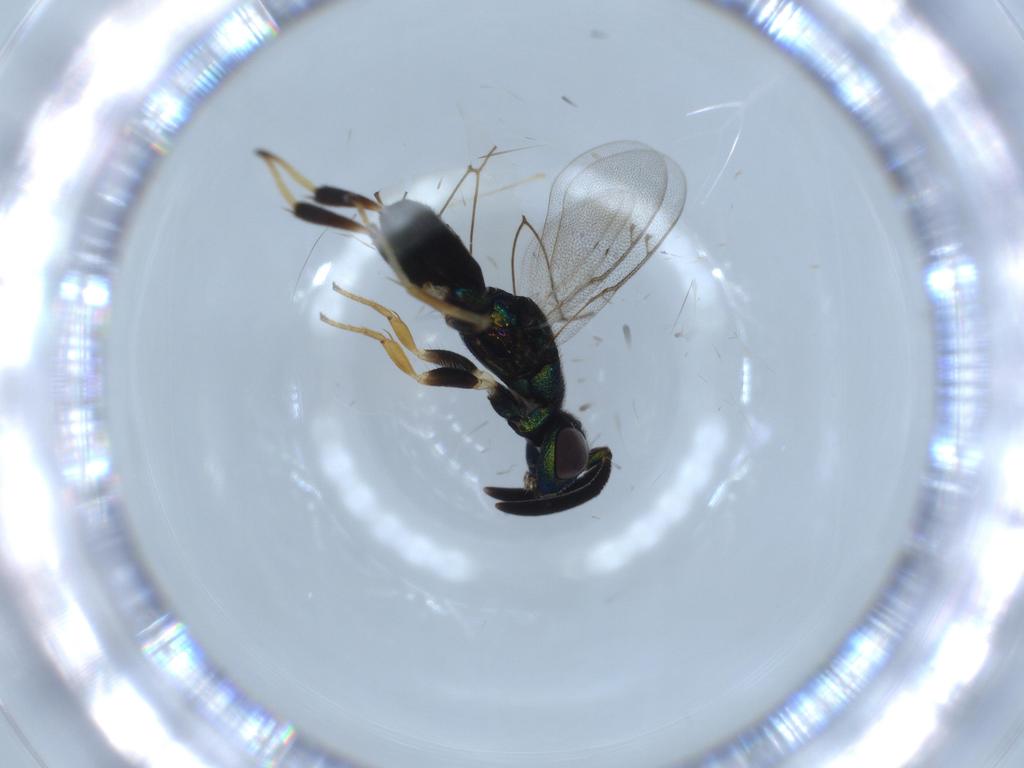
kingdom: Animalia
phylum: Arthropoda
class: Insecta
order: Hymenoptera
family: Eupelmidae
